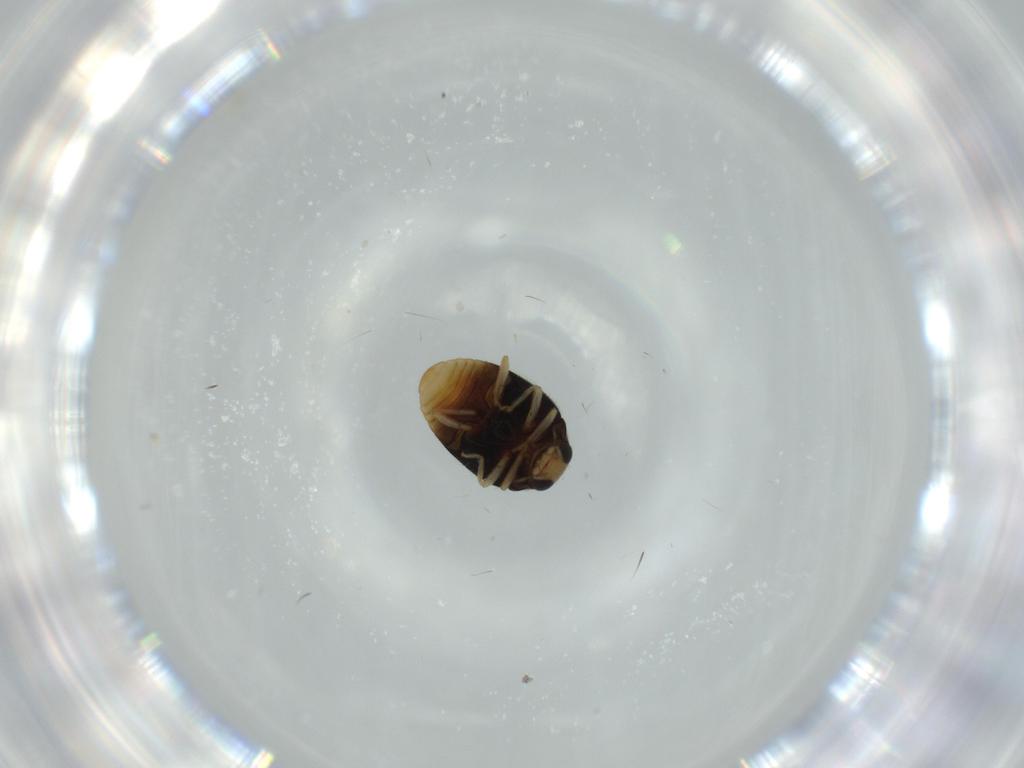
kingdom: Animalia
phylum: Arthropoda
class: Insecta
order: Coleoptera
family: Coccinellidae
